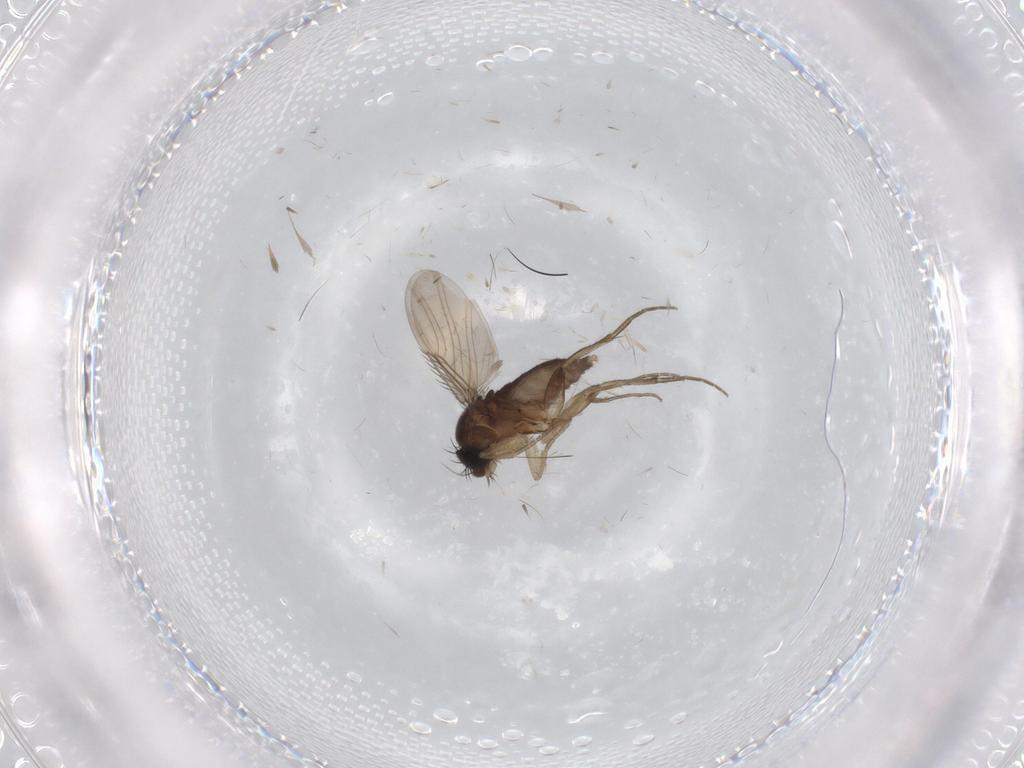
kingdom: Animalia
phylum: Arthropoda
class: Insecta
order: Diptera
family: Phoridae
